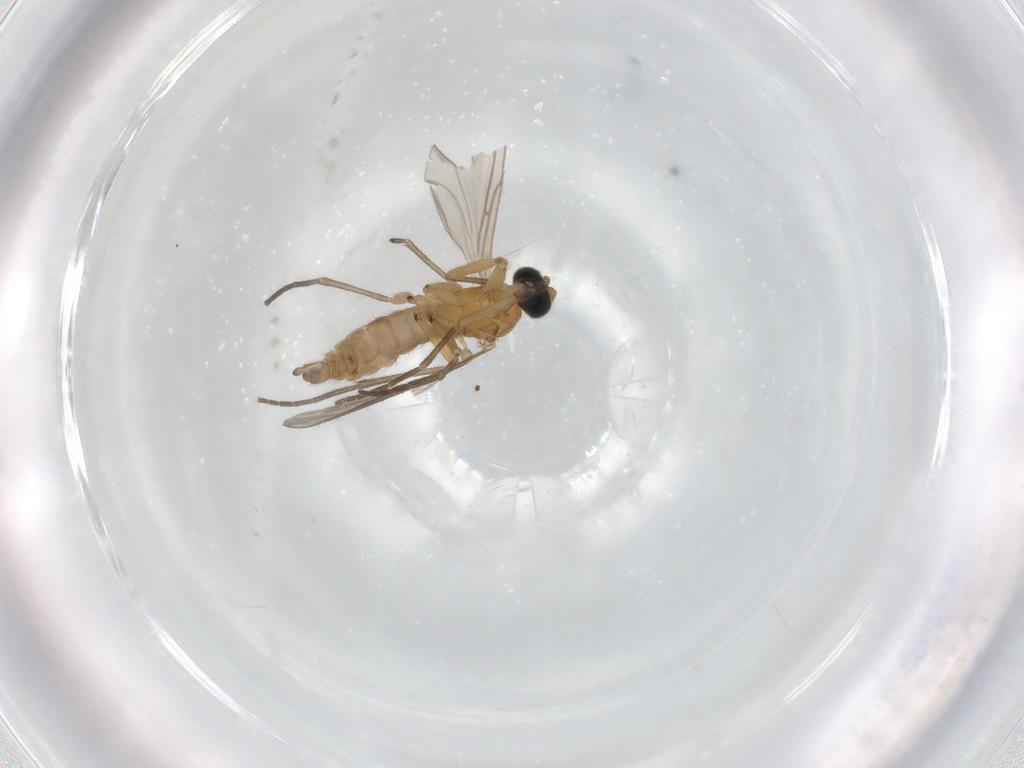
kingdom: Animalia
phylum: Arthropoda
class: Insecta
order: Diptera
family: Sciaridae
